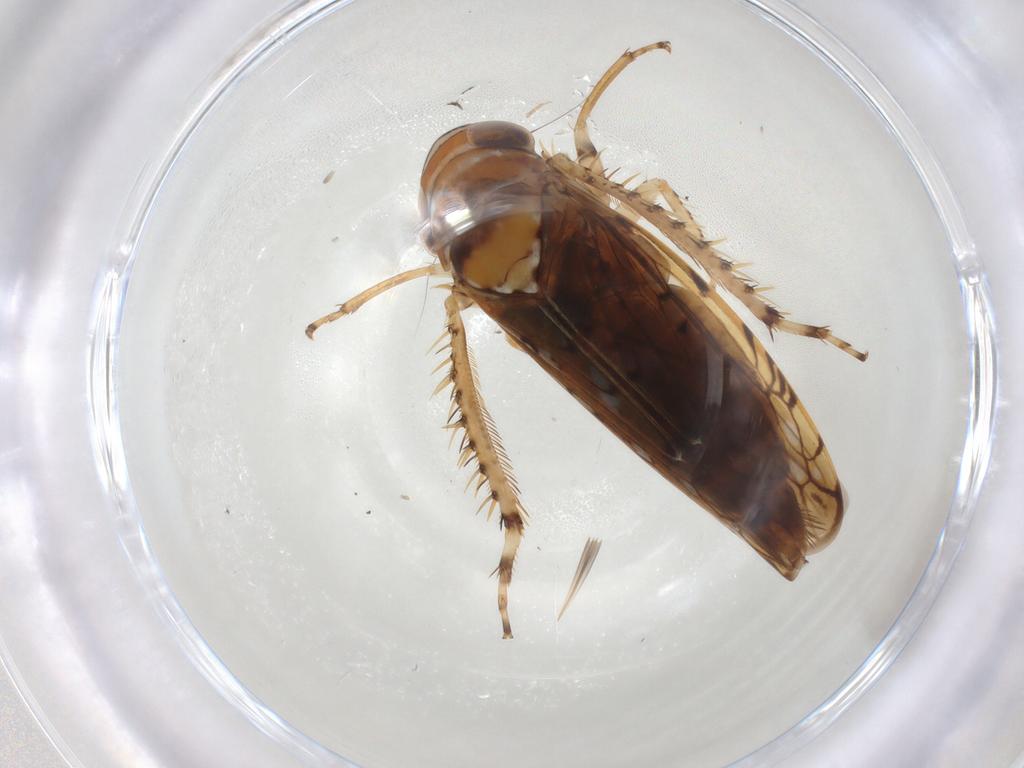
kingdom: Animalia
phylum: Arthropoda
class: Insecta
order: Hemiptera
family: Cicadellidae
